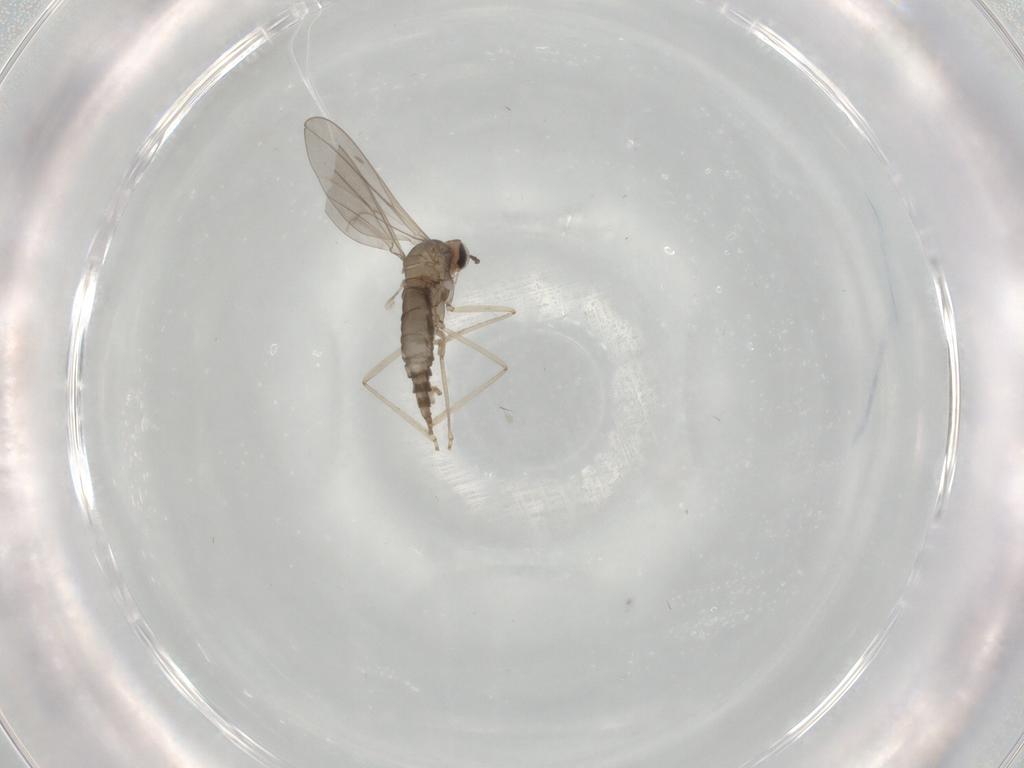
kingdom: Animalia
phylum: Arthropoda
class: Insecta
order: Diptera
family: Cecidomyiidae
